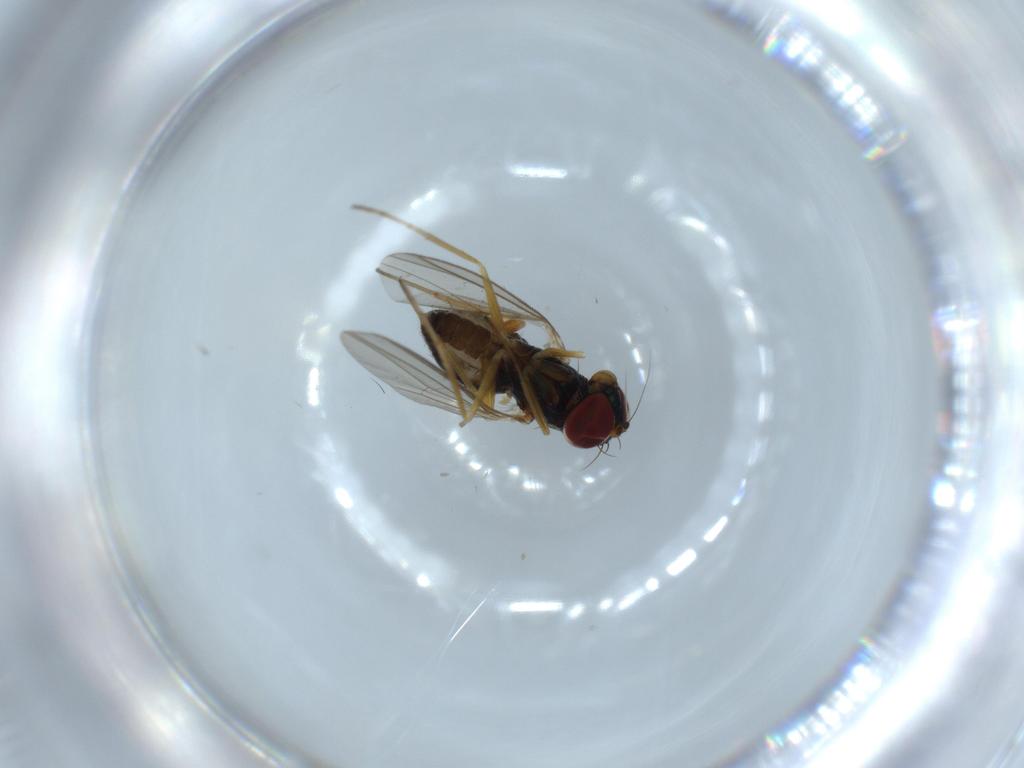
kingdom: Animalia
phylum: Arthropoda
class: Insecta
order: Diptera
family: Dolichopodidae
